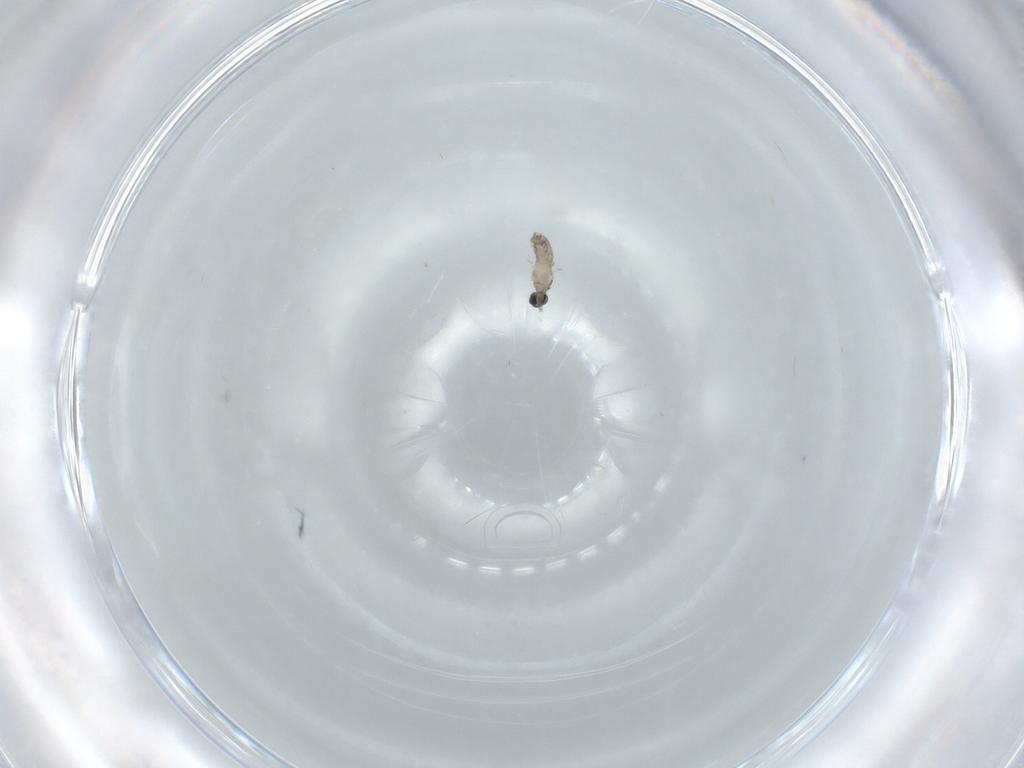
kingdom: Animalia
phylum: Arthropoda
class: Insecta
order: Diptera
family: Cecidomyiidae
